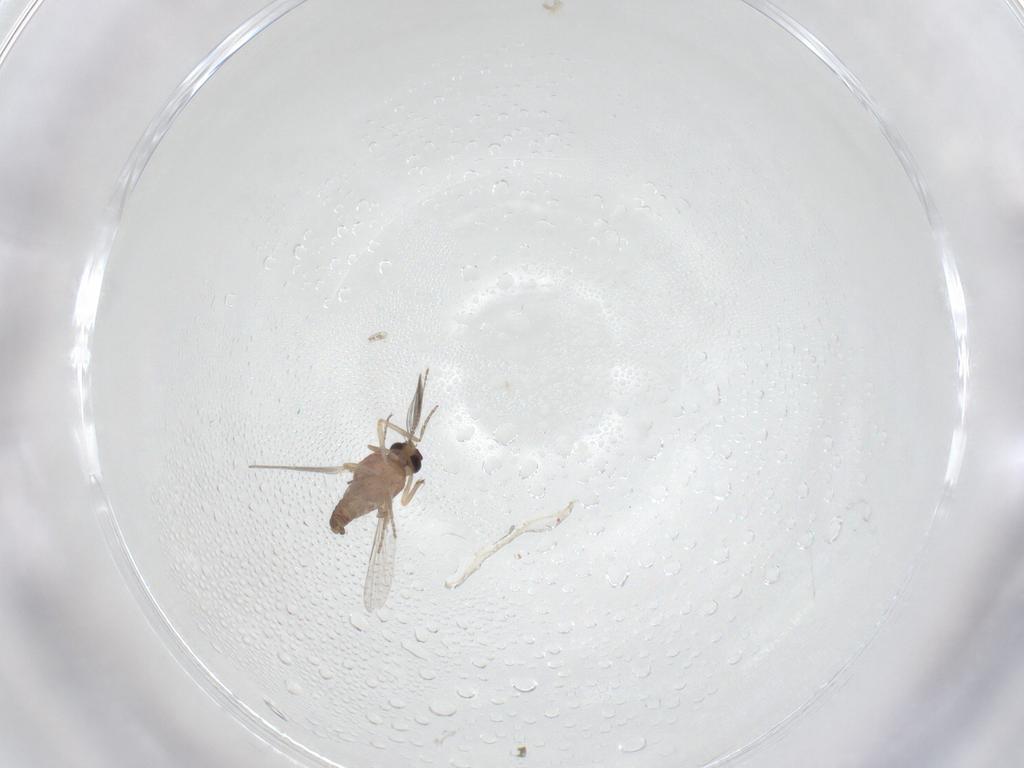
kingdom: Animalia
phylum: Arthropoda
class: Insecta
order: Diptera
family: Ceratopogonidae
